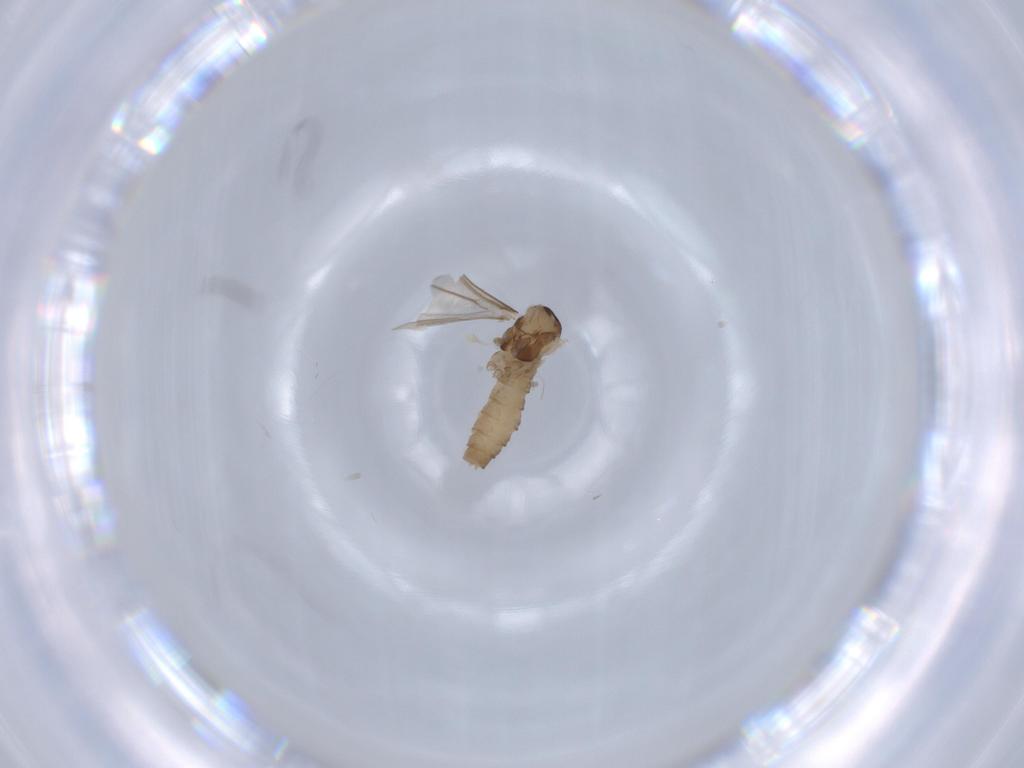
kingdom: Animalia
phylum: Arthropoda
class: Insecta
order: Diptera
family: Cecidomyiidae
